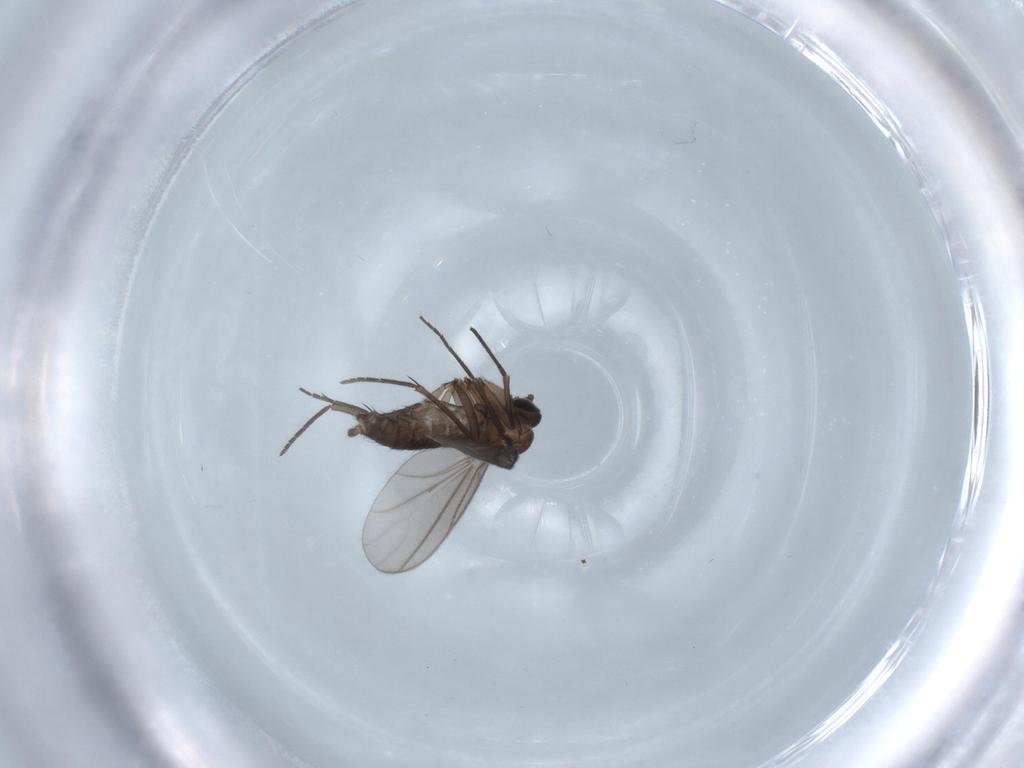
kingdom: Animalia
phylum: Arthropoda
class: Insecta
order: Diptera
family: Sciaridae
